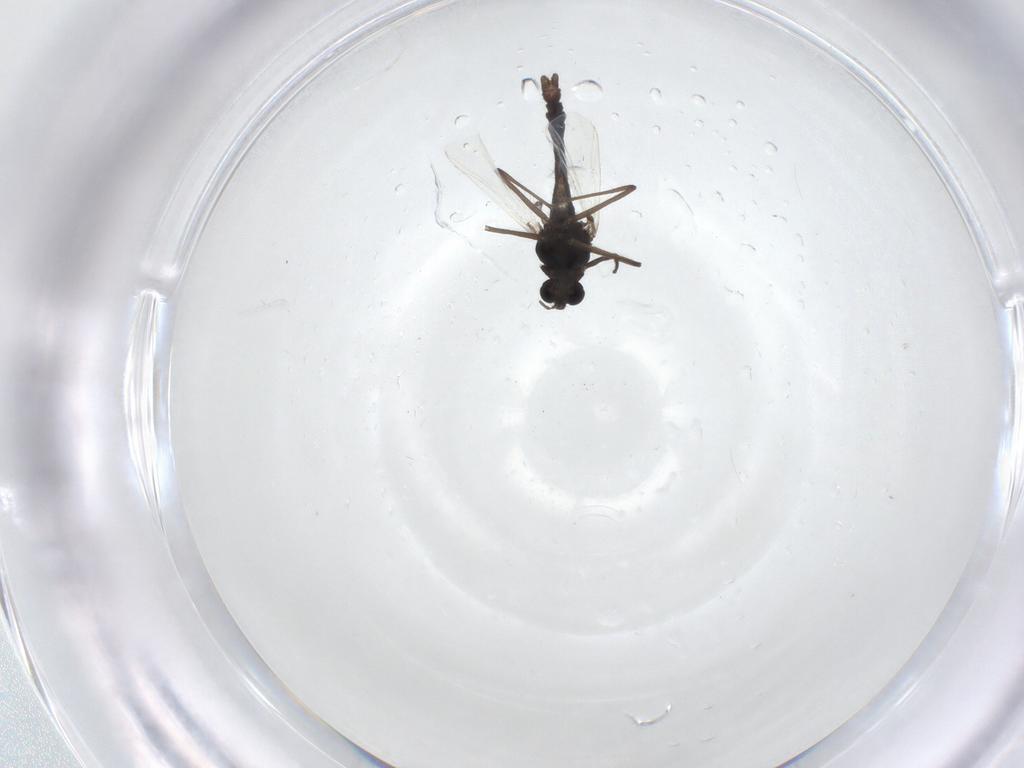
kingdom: Animalia
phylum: Arthropoda
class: Insecta
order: Diptera
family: Chironomidae
